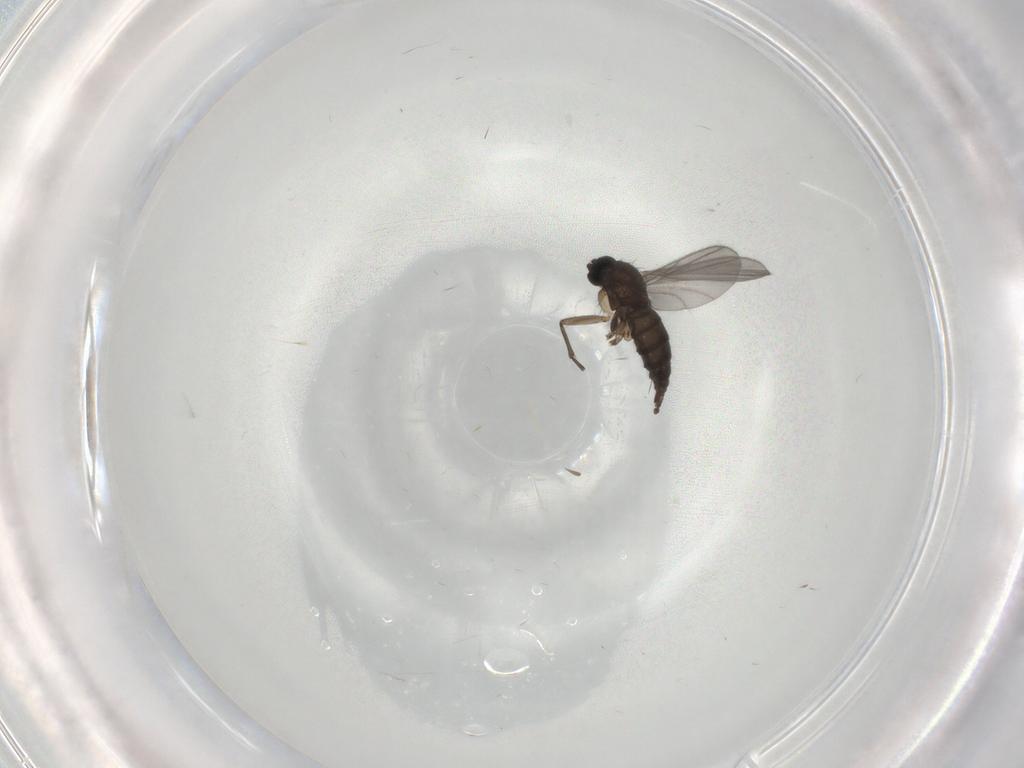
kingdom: Animalia
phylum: Arthropoda
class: Insecta
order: Diptera
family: Sciaridae
